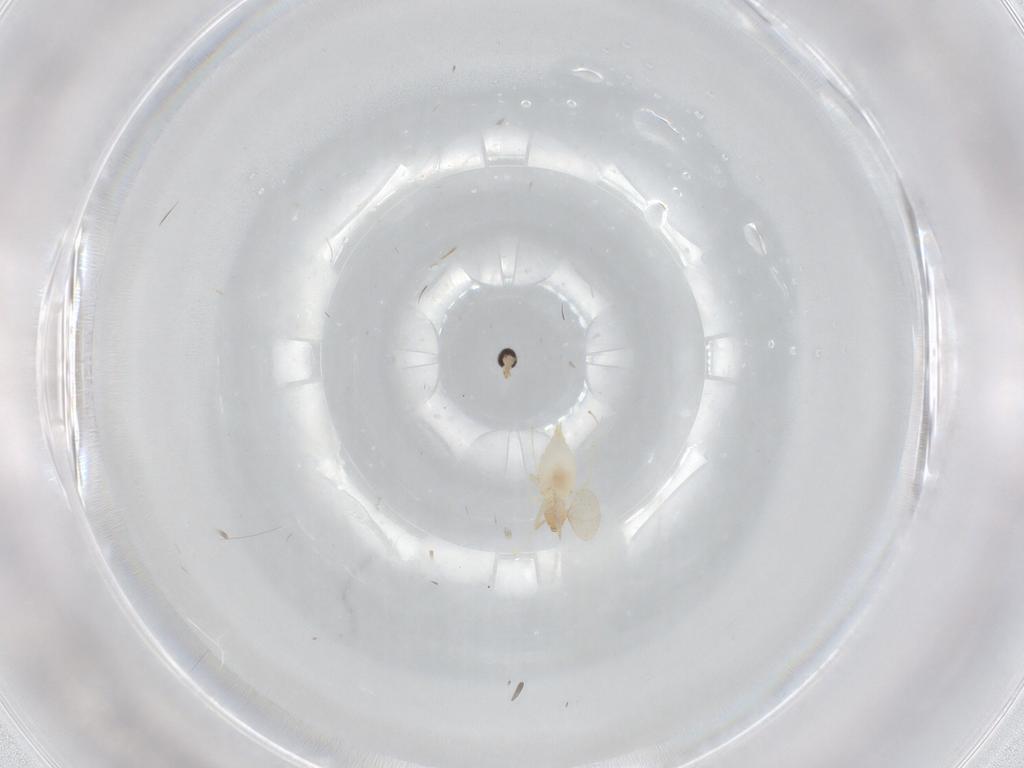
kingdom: Animalia
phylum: Arthropoda
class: Insecta
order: Diptera
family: Cecidomyiidae
